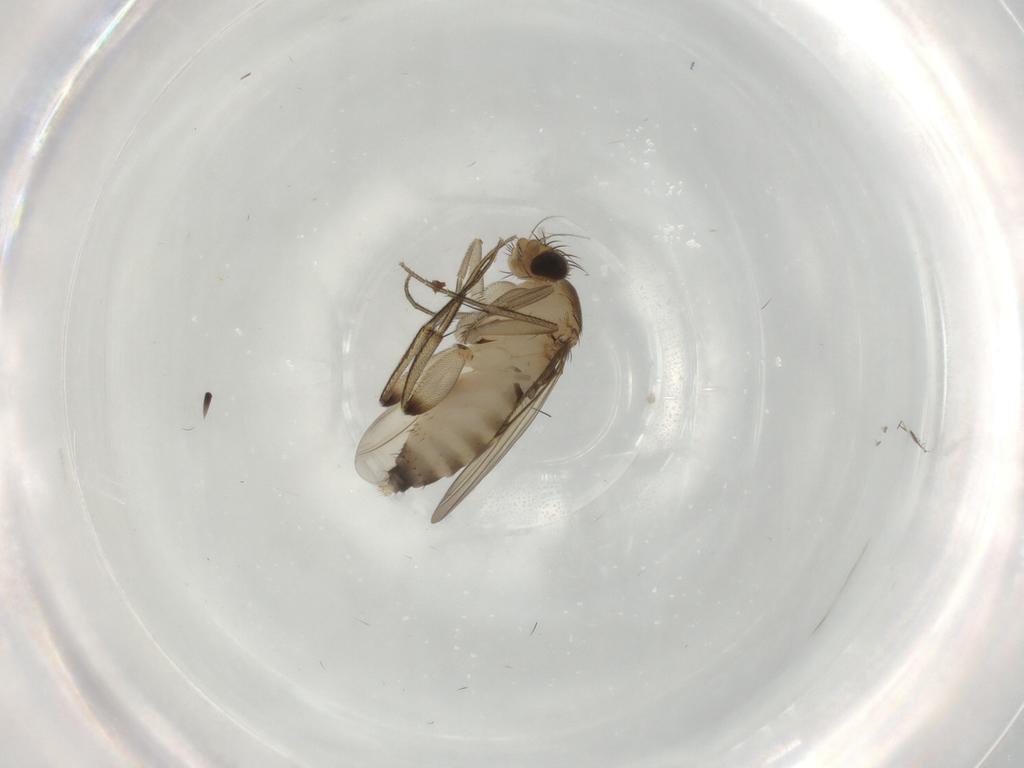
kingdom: Animalia
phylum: Arthropoda
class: Insecta
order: Diptera
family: Phoridae
